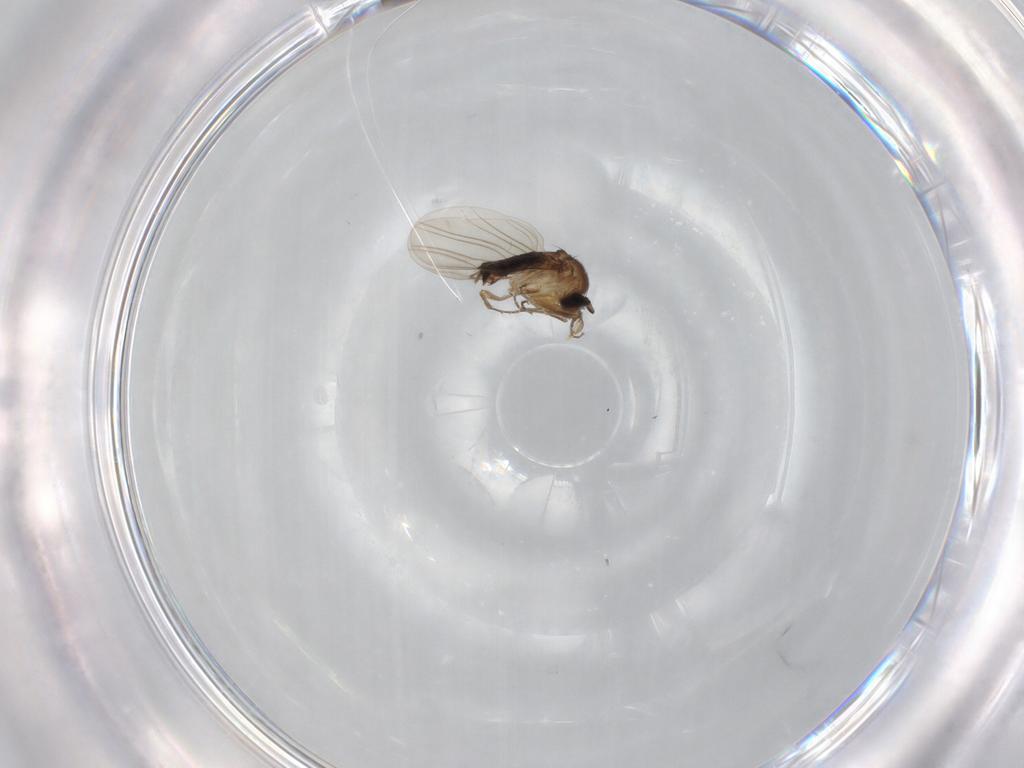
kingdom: Animalia
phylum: Arthropoda
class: Insecta
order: Diptera
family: Phoridae
